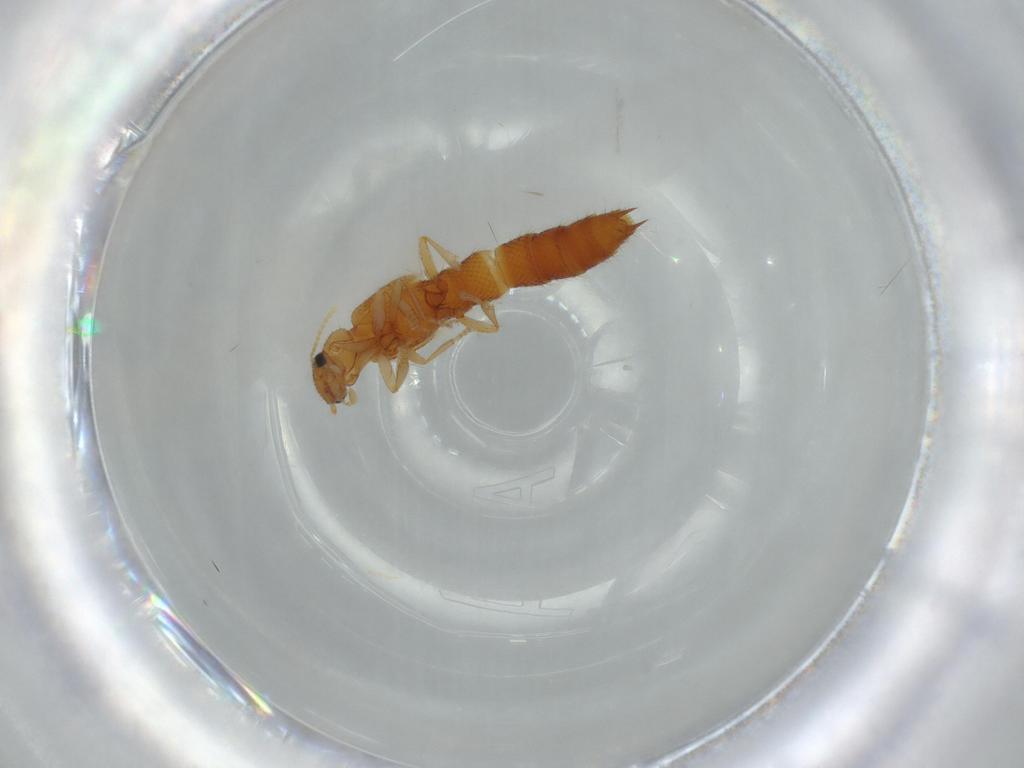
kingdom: Animalia
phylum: Arthropoda
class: Insecta
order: Coleoptera
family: Staphylinidae
